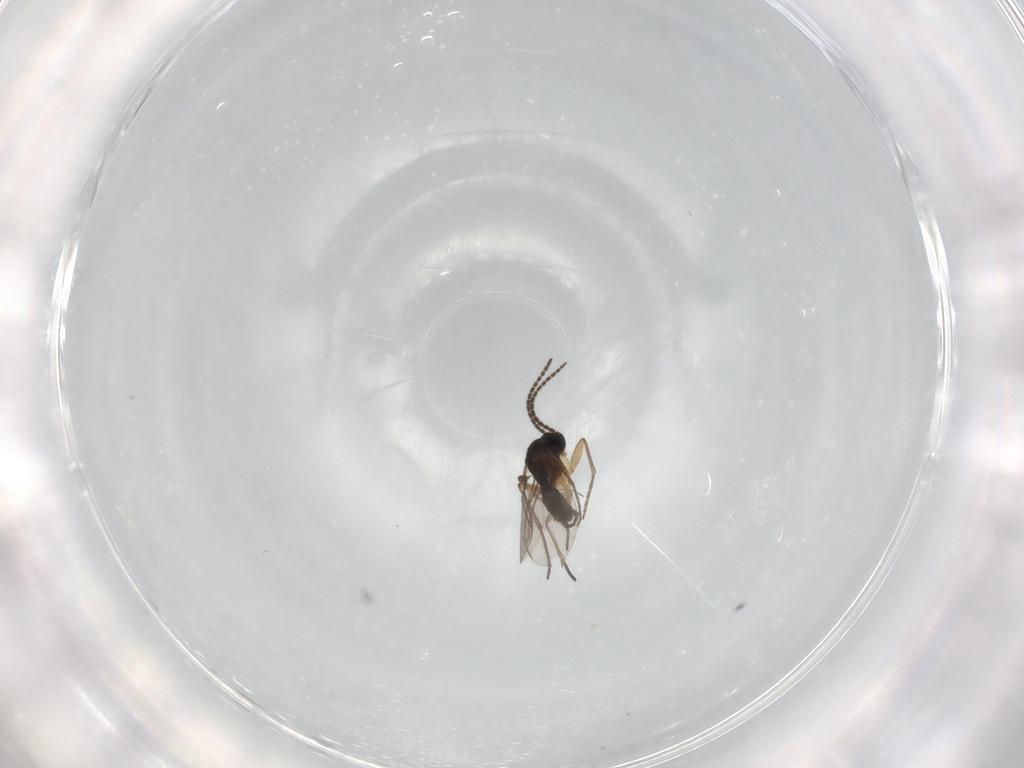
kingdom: Animalia
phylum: Arthropoda
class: Insecta
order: Diptera
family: Sciaridae
